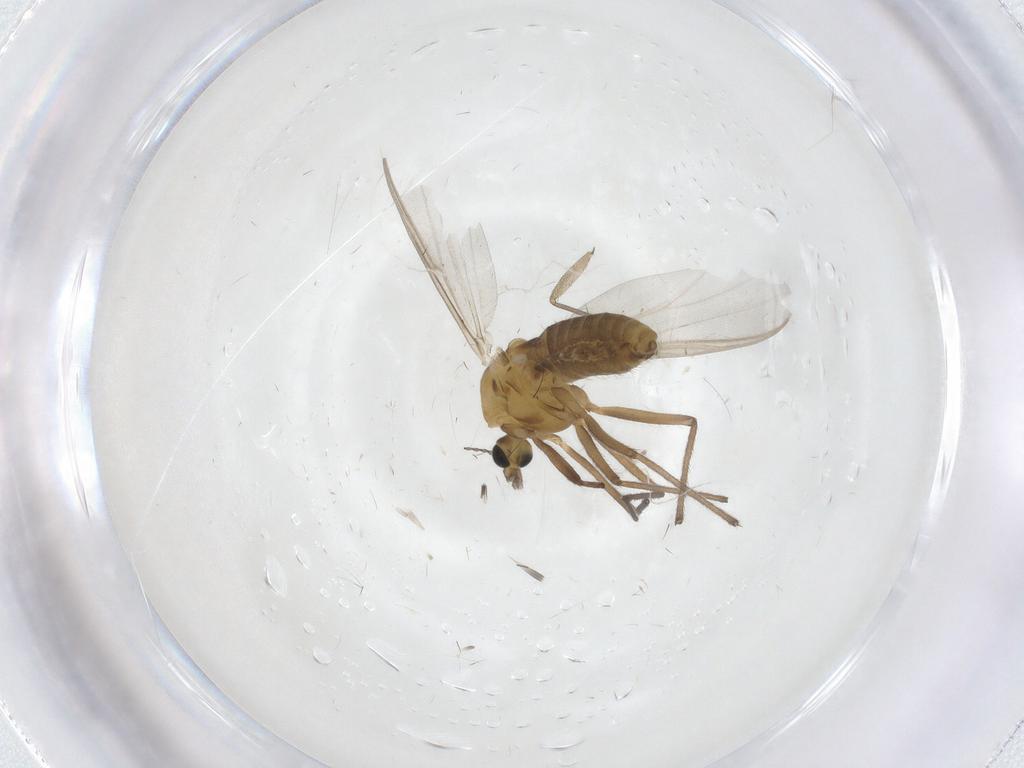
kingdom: Animalia
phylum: Arthropoda
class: Insecta
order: Diptera
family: Chironomidae
